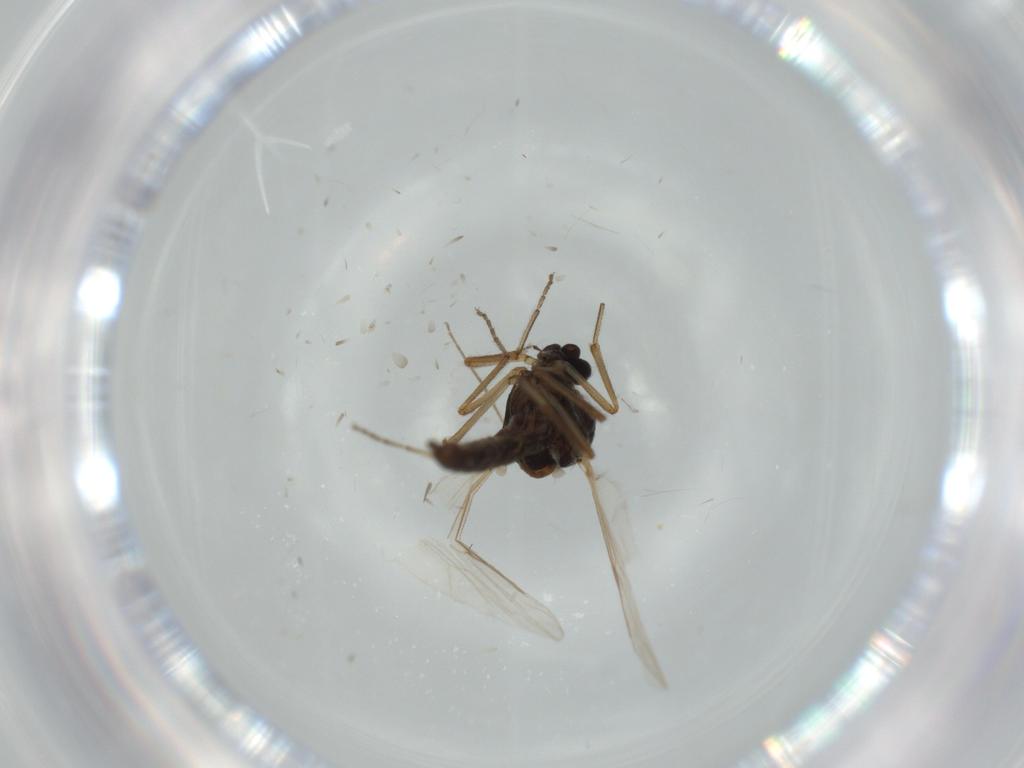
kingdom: Animalia
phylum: Arthropoda
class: Insecta
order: Diptera
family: Ceratopogonidae
